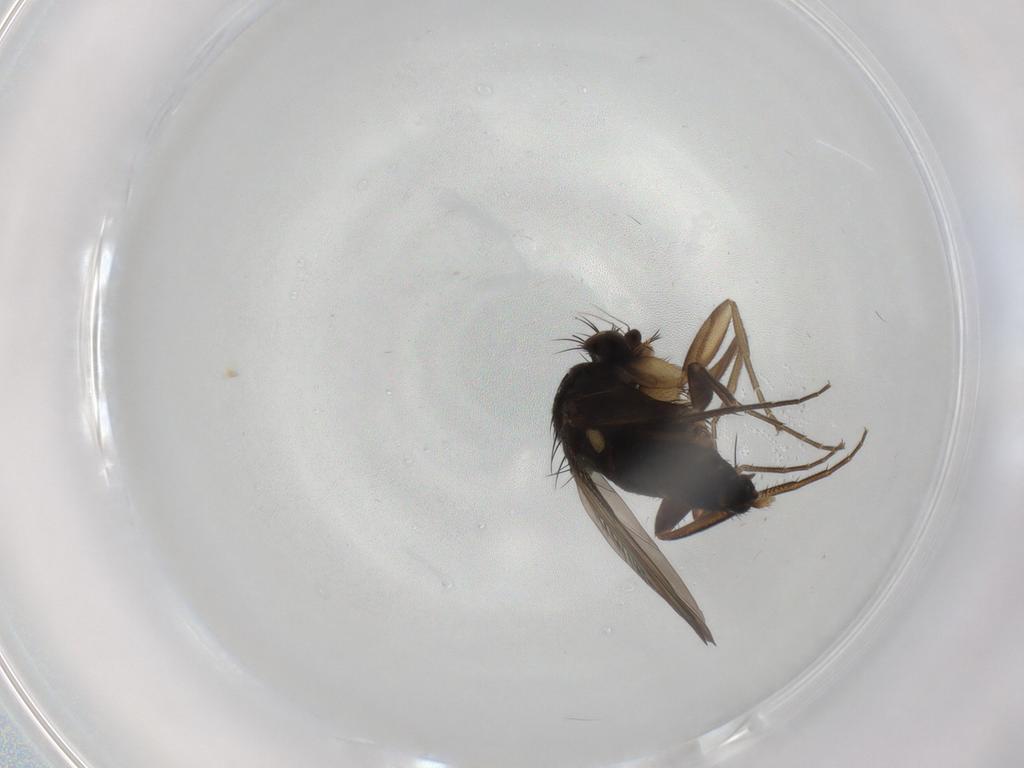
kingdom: Animalia
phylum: Arthropoda
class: Insecta
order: Diptera
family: Phoridae
